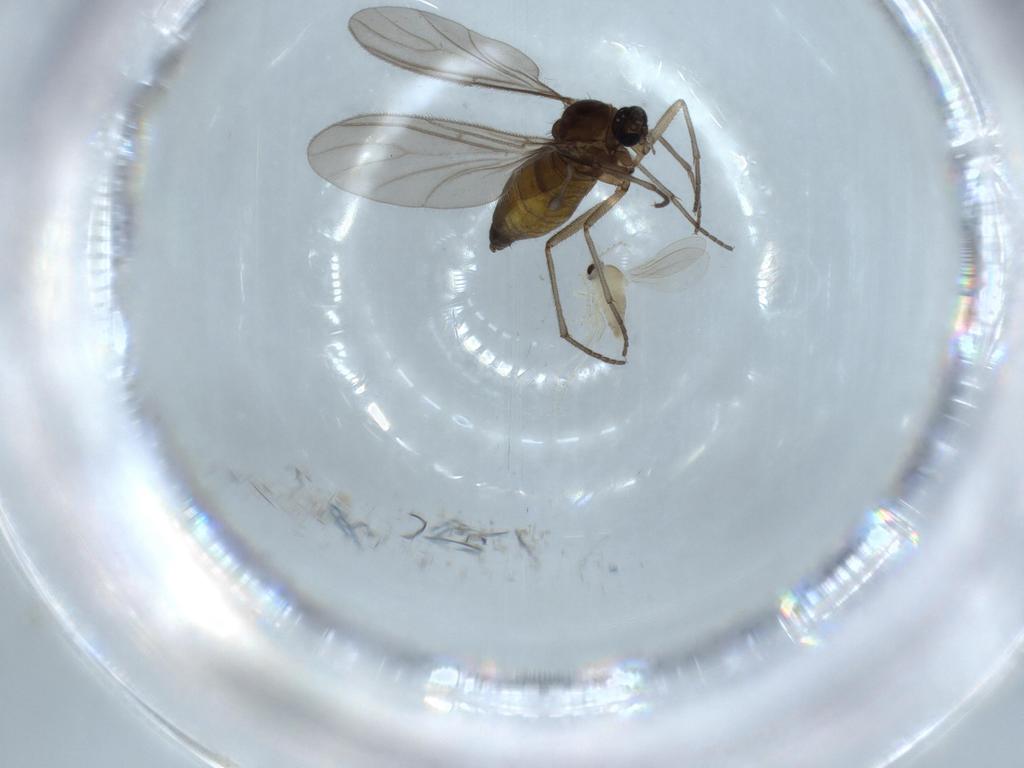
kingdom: Animalia
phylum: Arthropoda
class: Insecta
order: Diptera
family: Sciaridae
